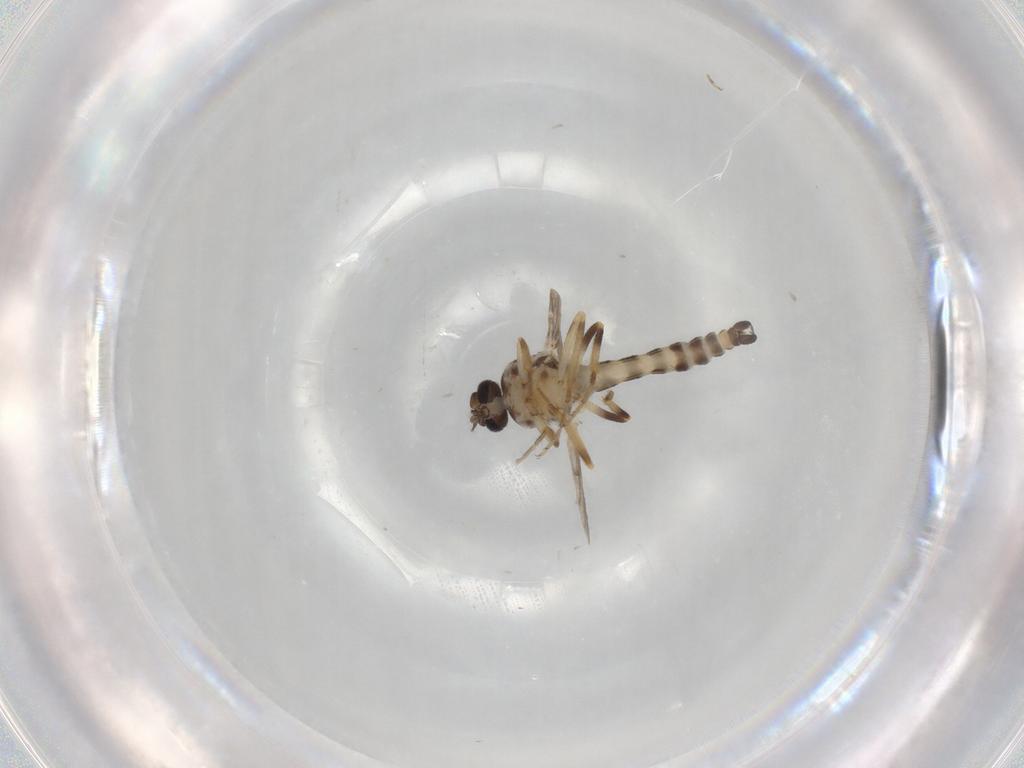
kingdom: Animalia
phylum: Arthropoda
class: Insecta
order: Diptera
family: Ceratopogonidae
